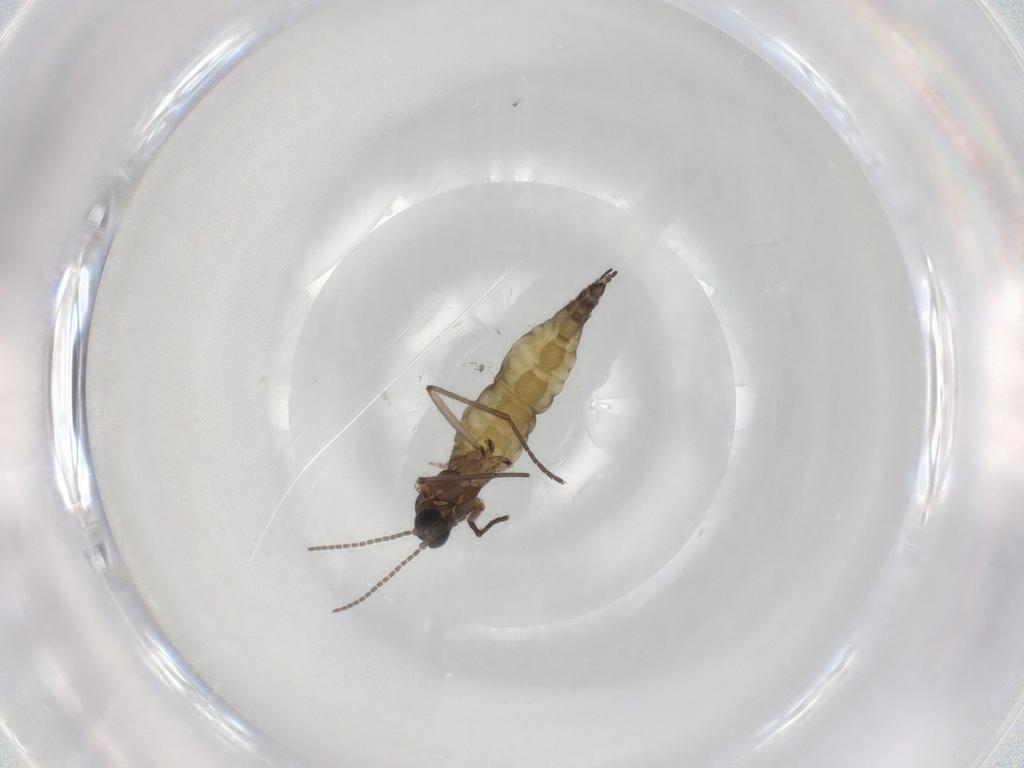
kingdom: Animalia
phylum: Arthropoda
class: Insecta
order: Diptera
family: Sciaridae
